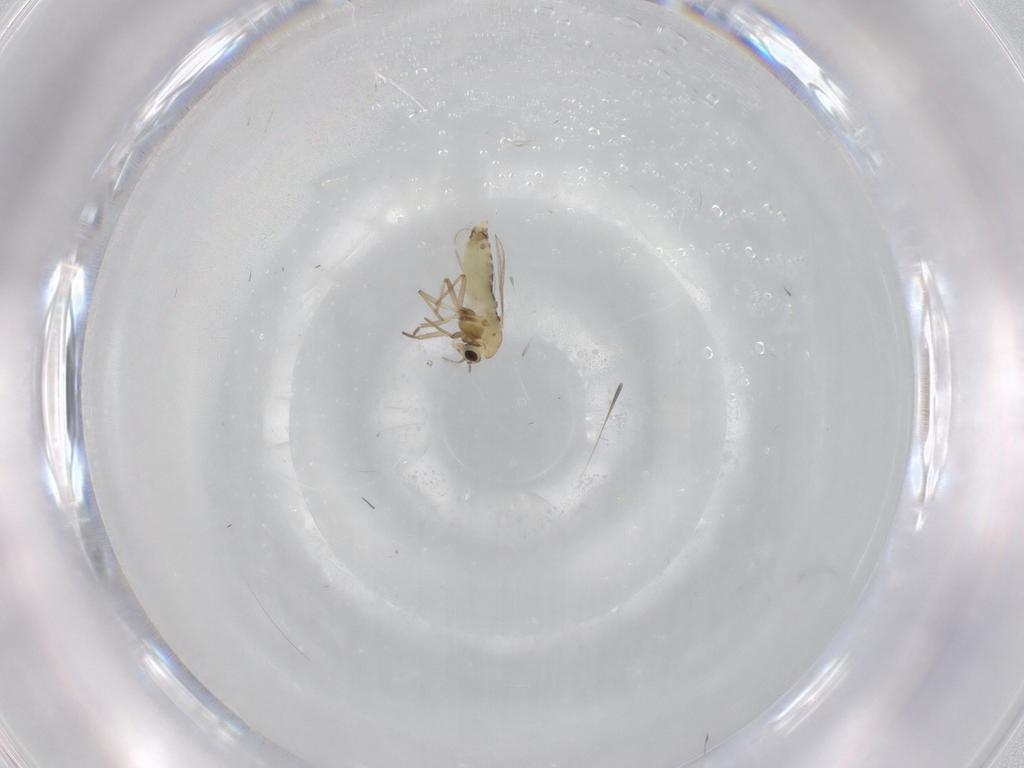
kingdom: Animalia
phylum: Arthropoda
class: Insecta
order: Diptera
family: Chironomidae
